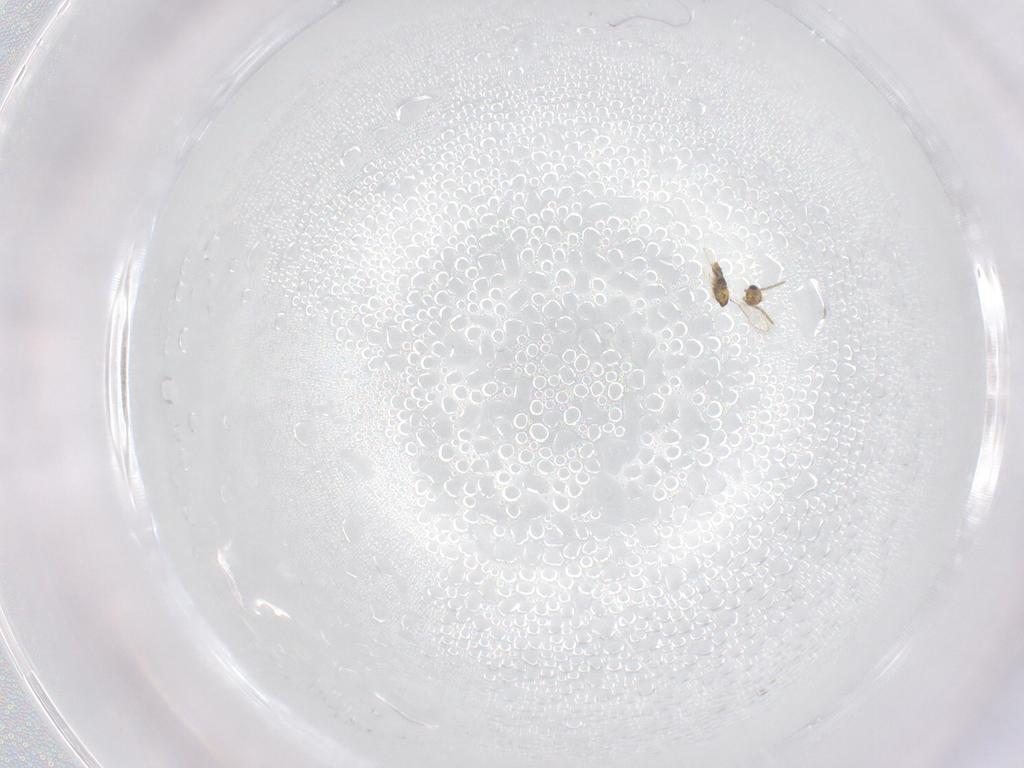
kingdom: Animalia
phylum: Arthropoda
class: Insecta
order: Hymenoptera
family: Aphelinidae
